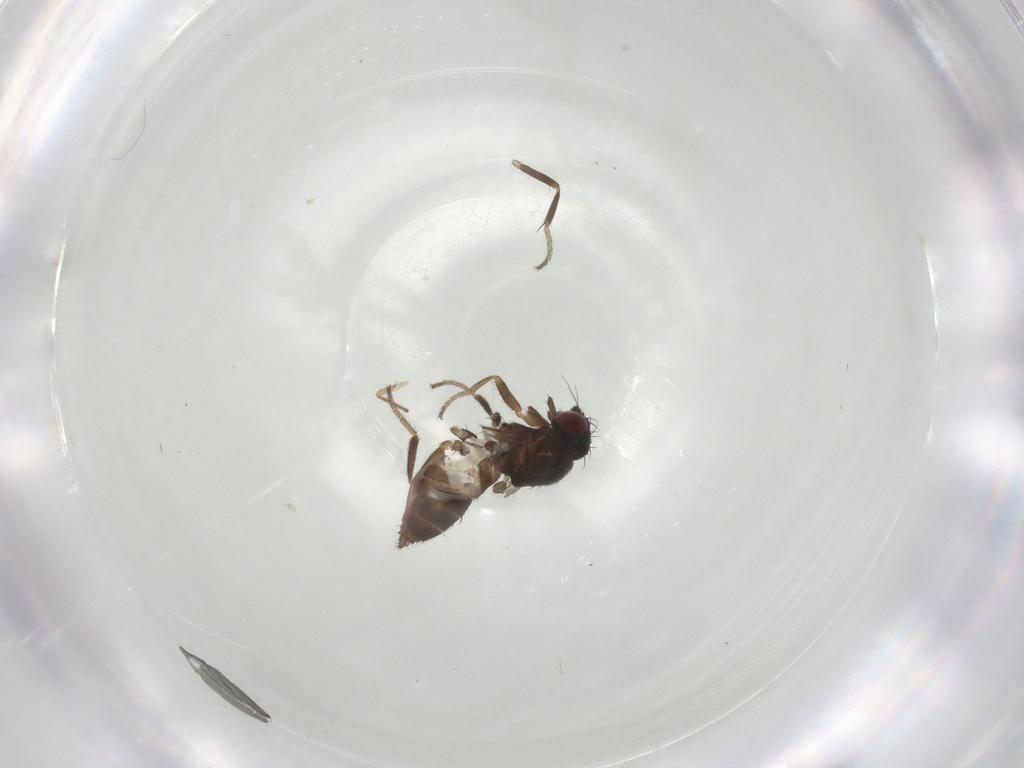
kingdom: Animalia
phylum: Arthropoda
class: Insecta
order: Diptera
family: Milichiidae
